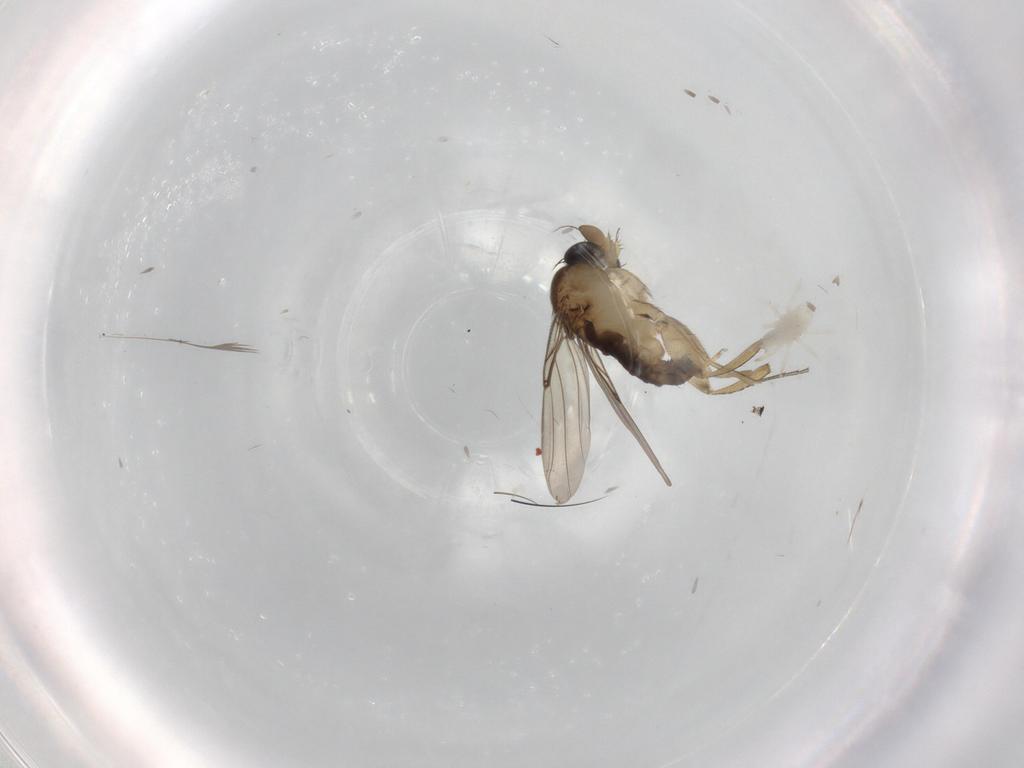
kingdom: Animalia
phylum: Arthropoda
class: Insecta
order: Diptera
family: Phoridae
